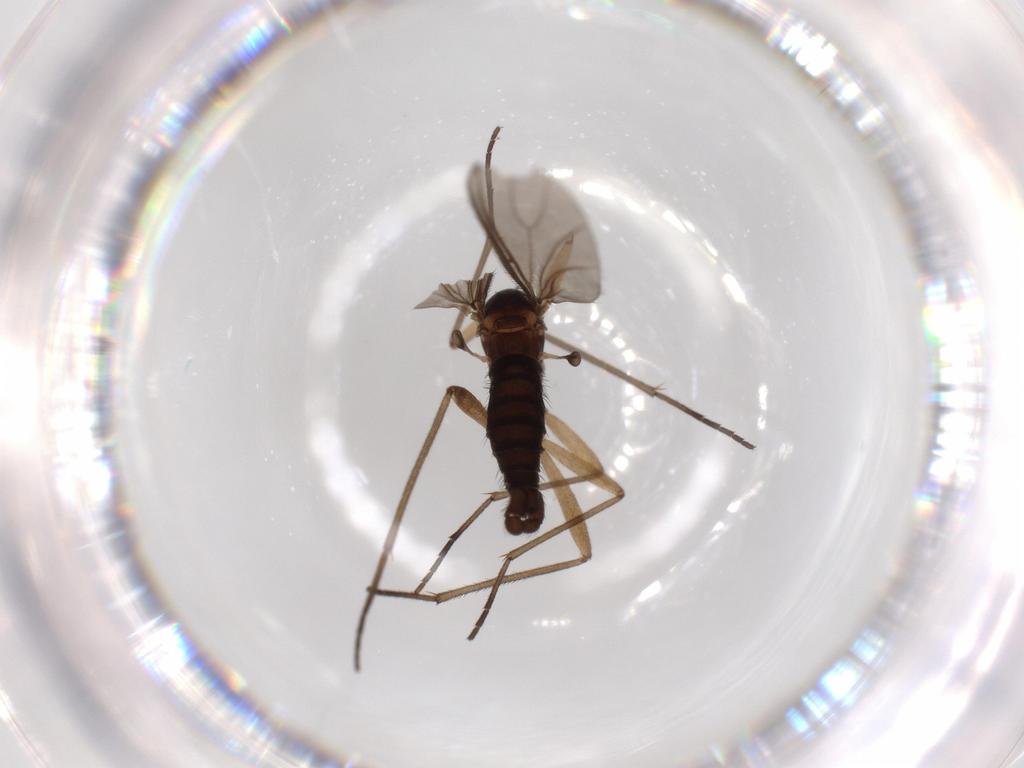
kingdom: Animalia
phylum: Arthropoda
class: Insecta
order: Diptera
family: Sciaridae
